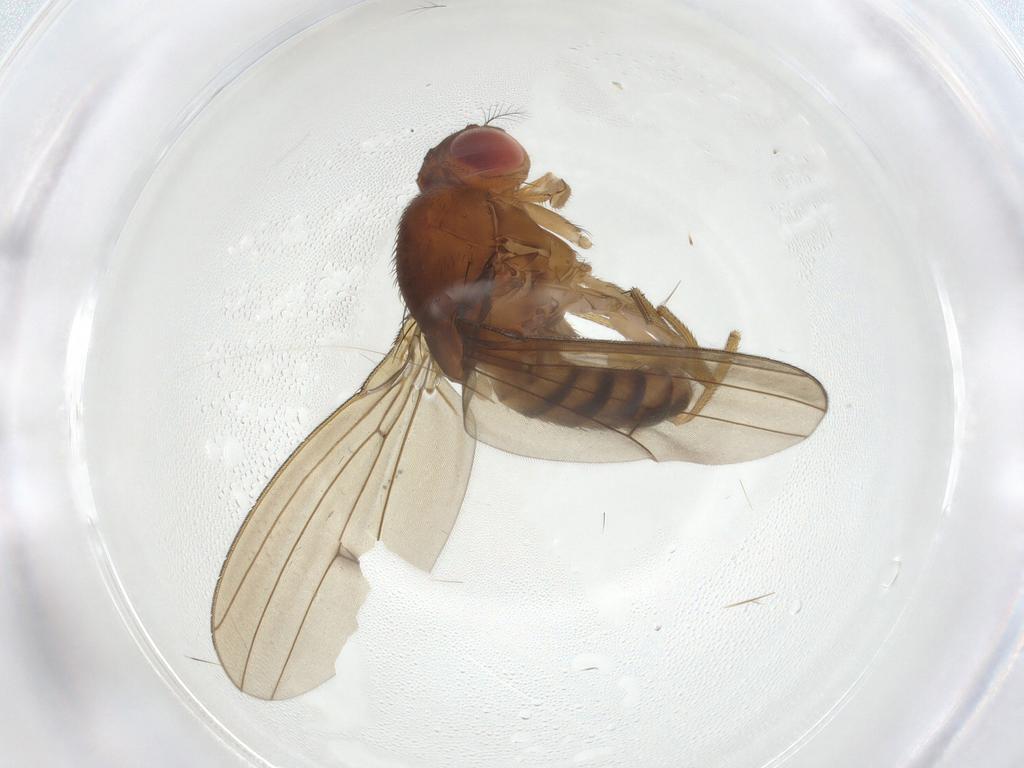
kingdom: Animalia
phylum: Arthropoda
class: Insecta
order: Diptera
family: Drosophilidae
